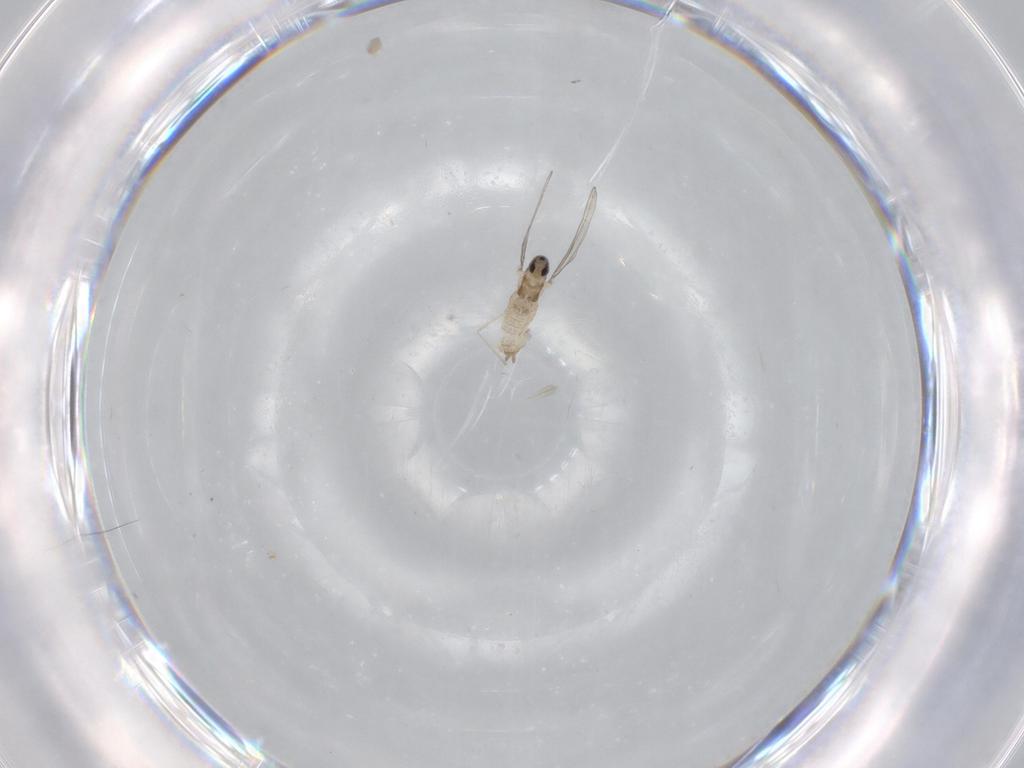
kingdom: Animalia
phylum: Arthropoda
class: Insecta
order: Diptera
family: Cecidomyiidae
